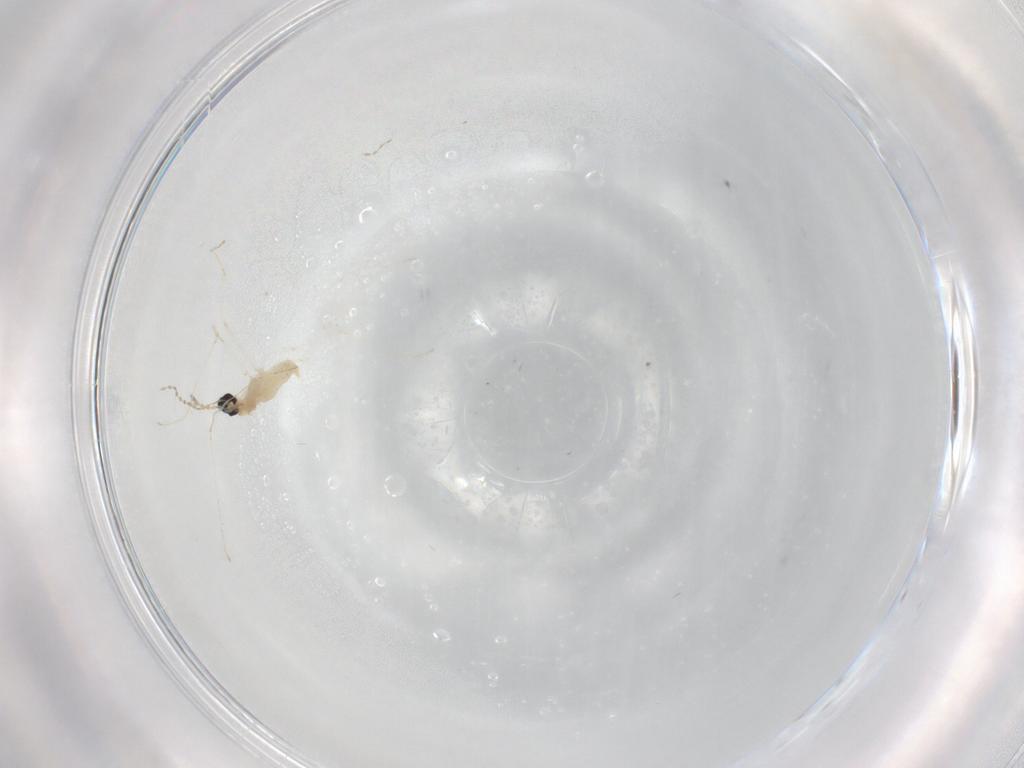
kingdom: Animalia
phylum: Arthropoda
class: Insecta
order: Diptera
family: Cecidomyiidae
